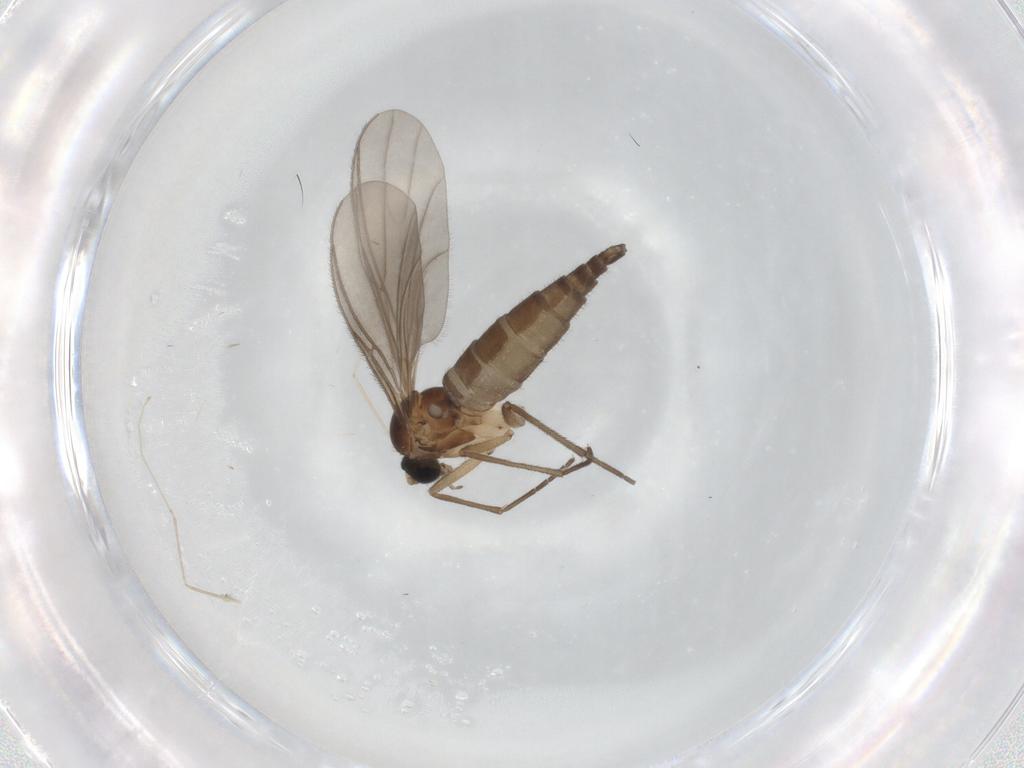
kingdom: Animalia
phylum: Arthropoda
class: Insecta
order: Diptera
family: Sciaridae
